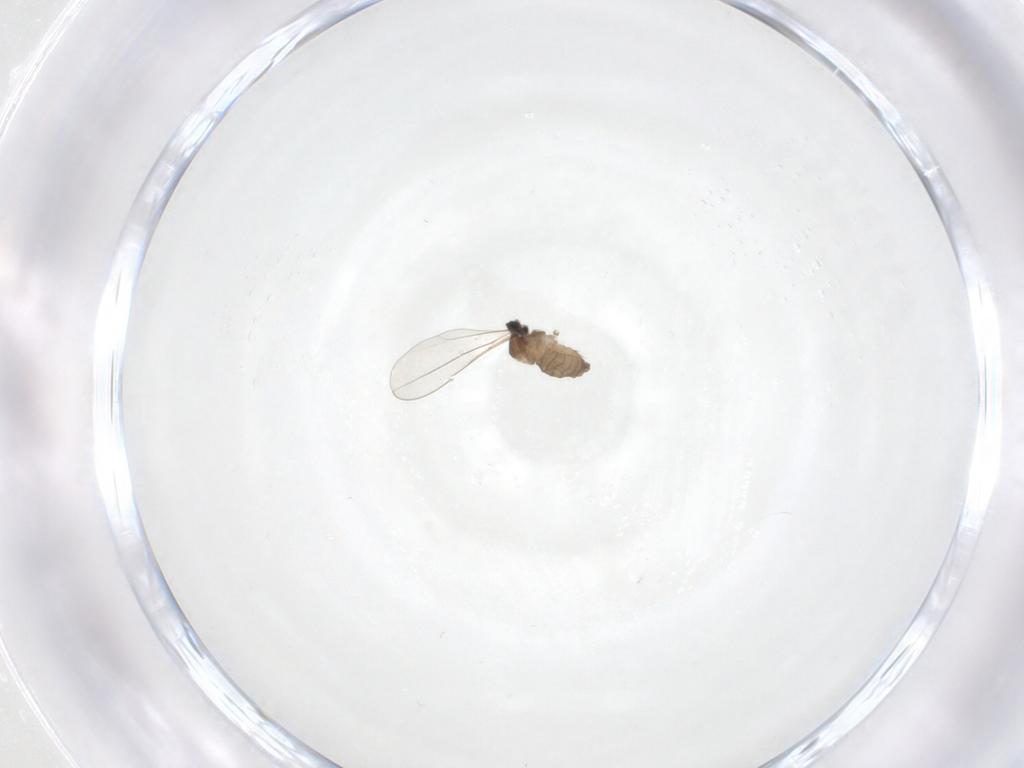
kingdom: Animalia
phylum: Arthropoda
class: Insecta
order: Diptera
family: Cecidomyiidae
